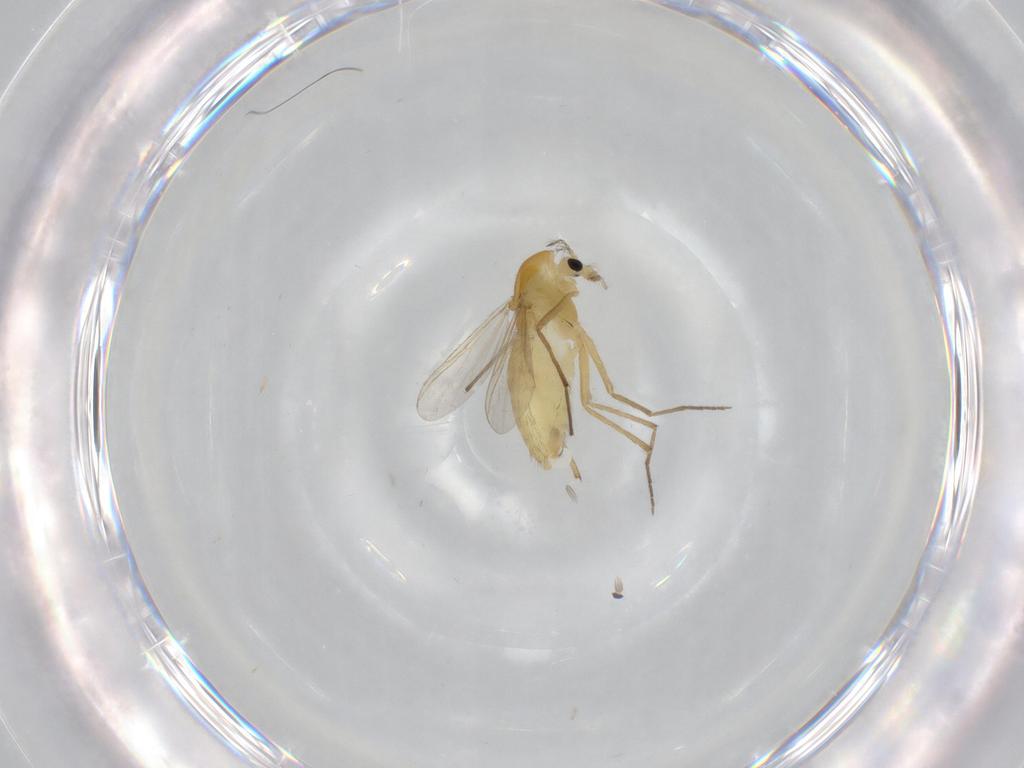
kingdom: Animalia
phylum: Arthropoda
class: Insecta
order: Diptera
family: Chironomidae
